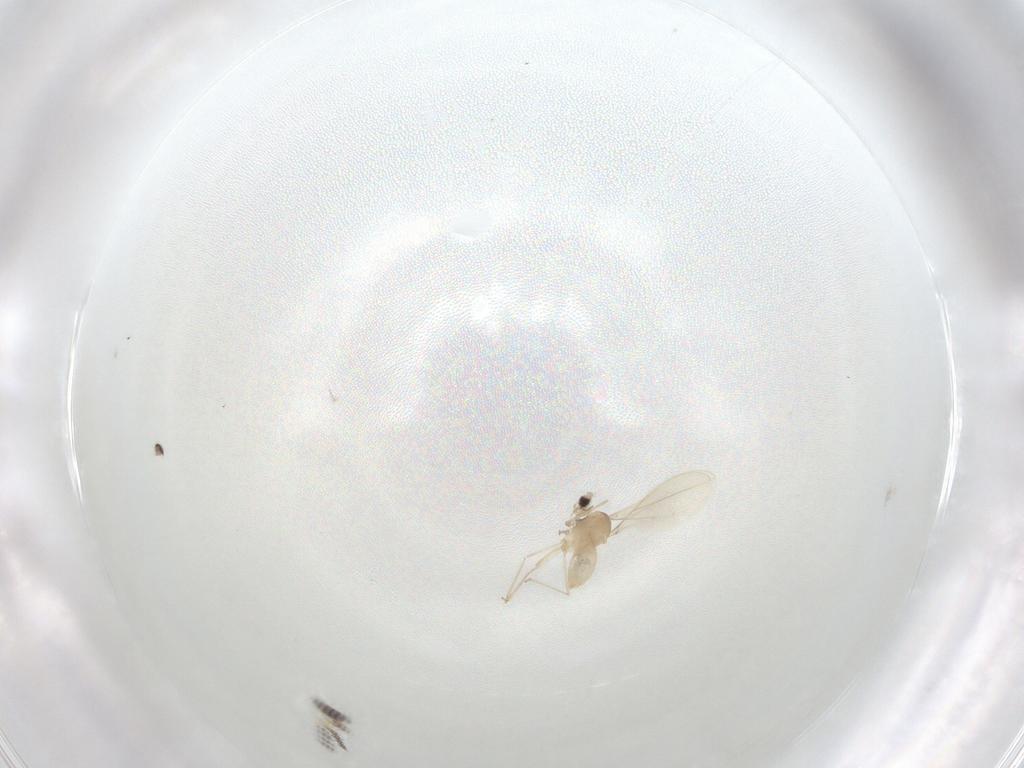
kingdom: Animalia
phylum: Arthropoda
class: Insecta
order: Diptera
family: Cecidomyiidae
